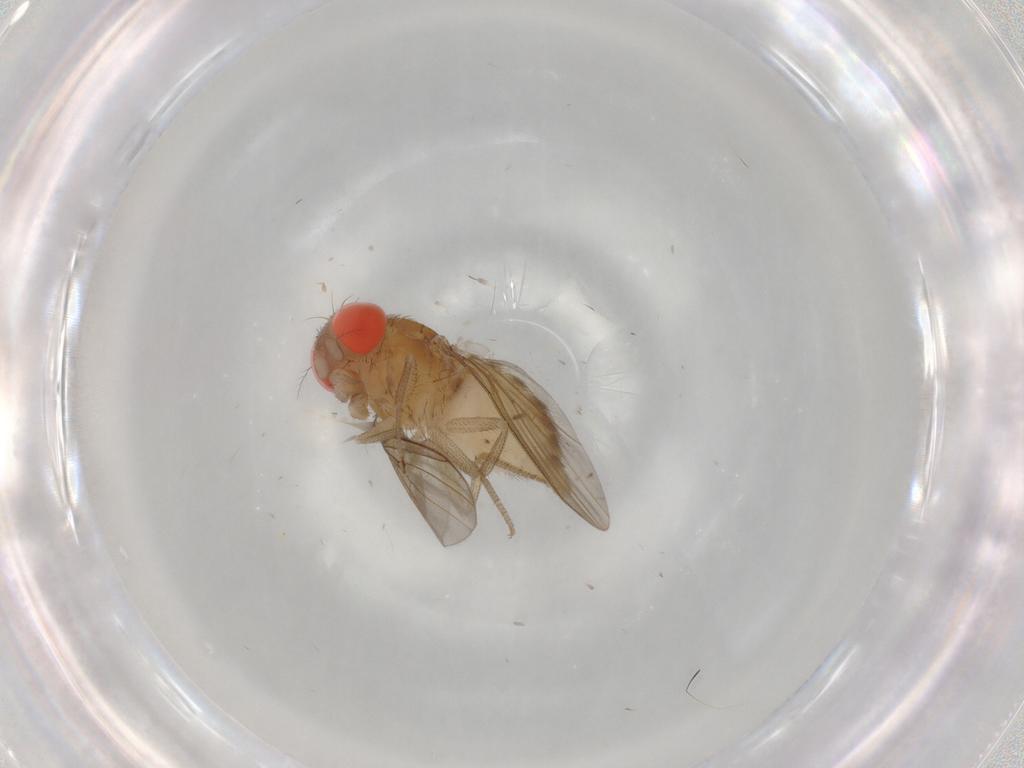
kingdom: Animalia
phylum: Arthropoda
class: Insecta
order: Diptera
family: Drosophilidae
